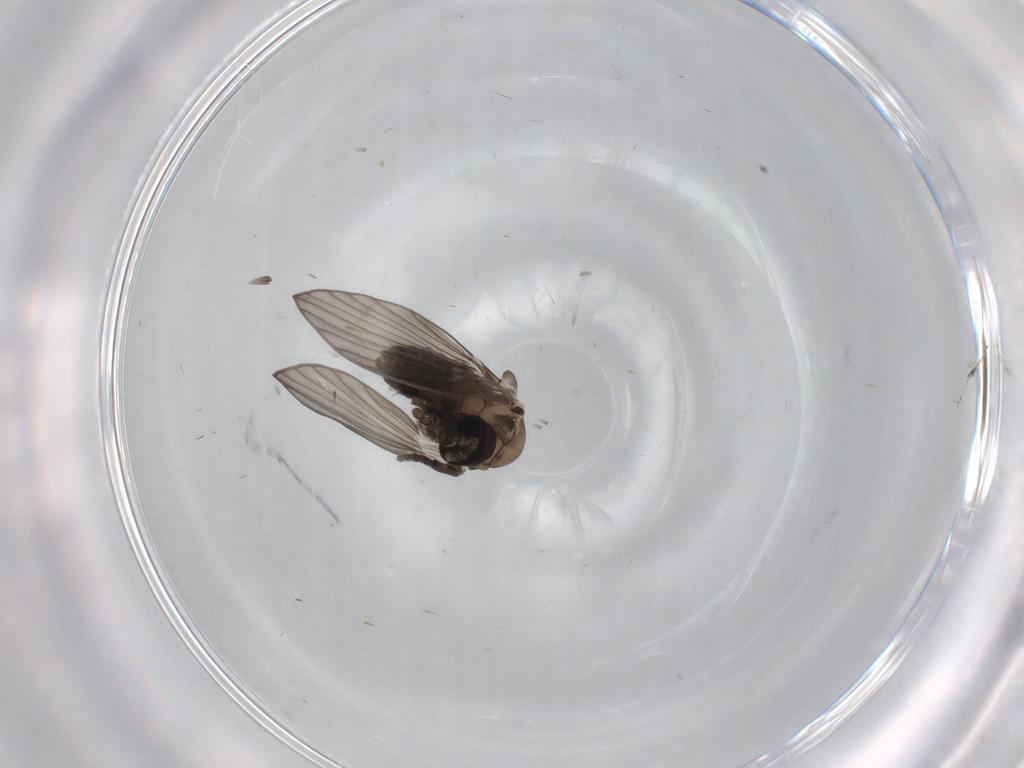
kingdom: Animalia
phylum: Arthropoda
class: Insecta
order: Diptera
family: Psychodidae
